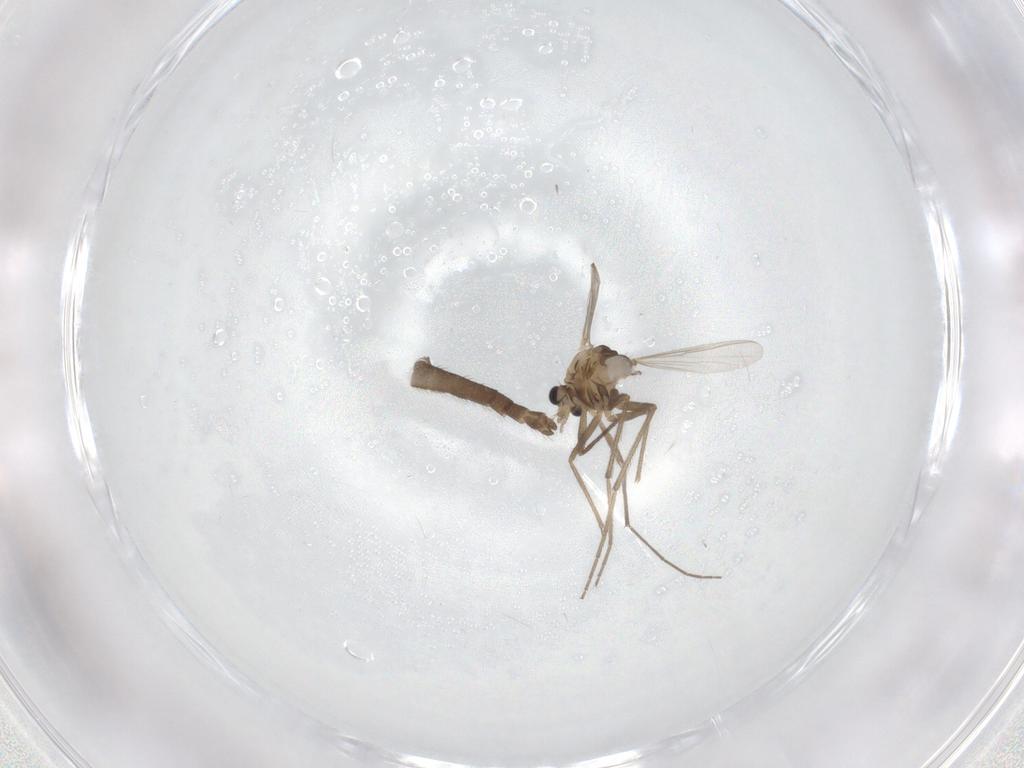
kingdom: Animalia
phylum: Arthropoda
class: Insecta
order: Diptera
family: Chironomidae
